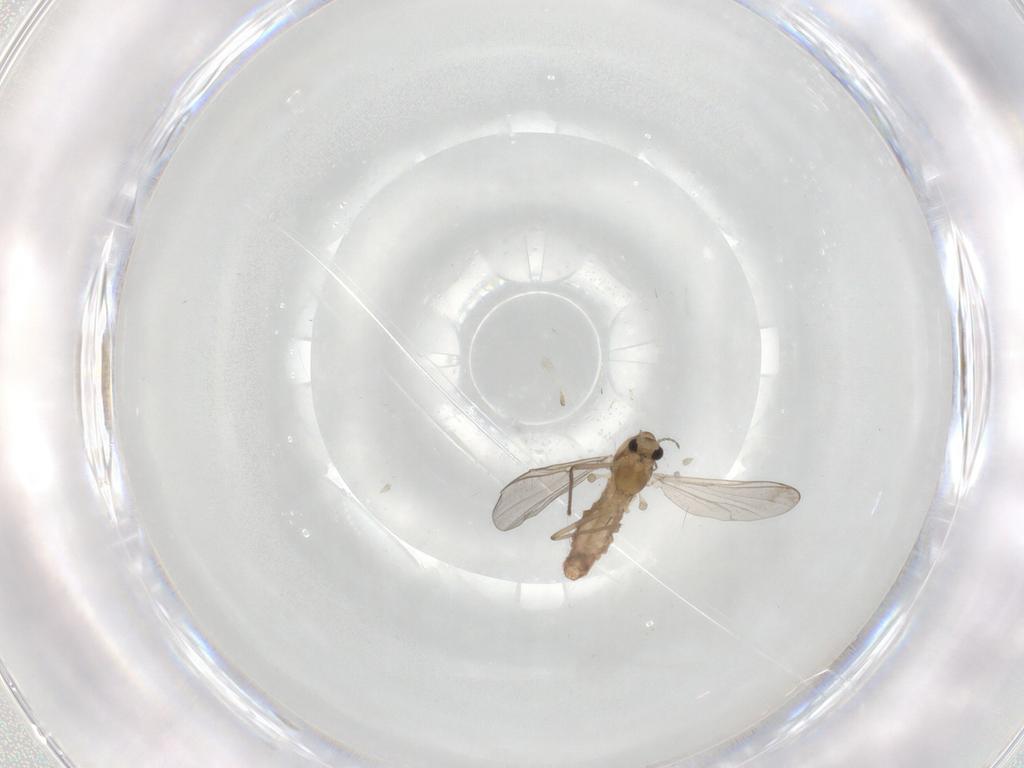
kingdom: Animalia
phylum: Arthropoda
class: Insecta
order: Diptera
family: Chironomidae
